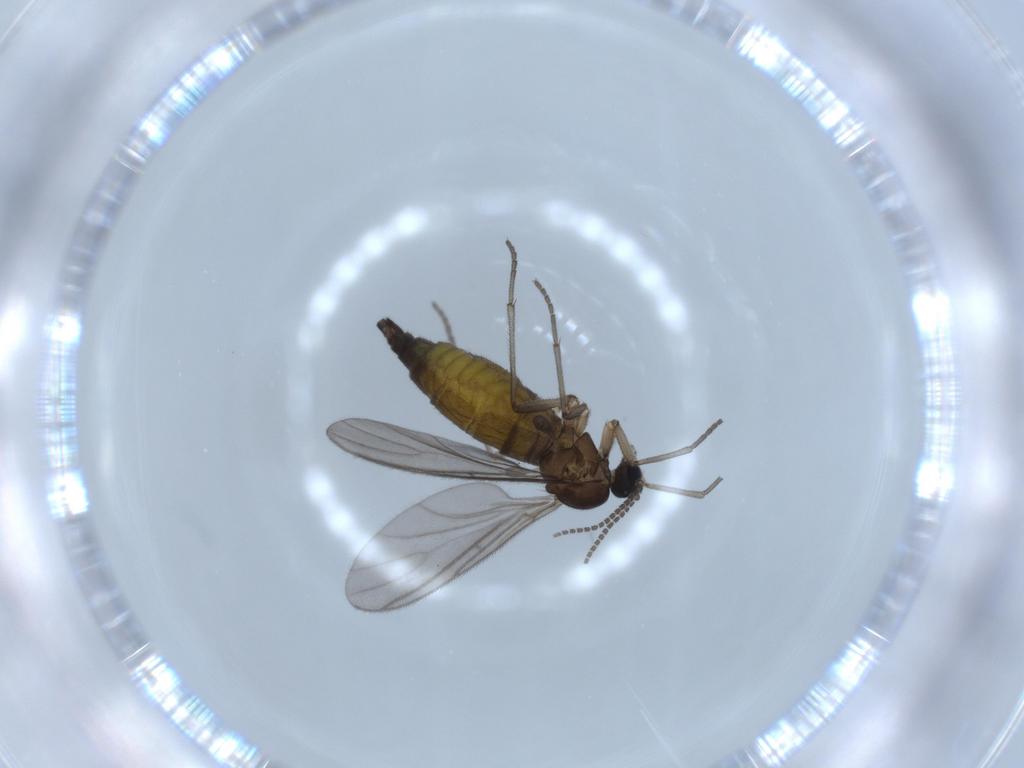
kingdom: Animalia
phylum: Arthropoda
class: Insecta
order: Diptera
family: Sciaridae
